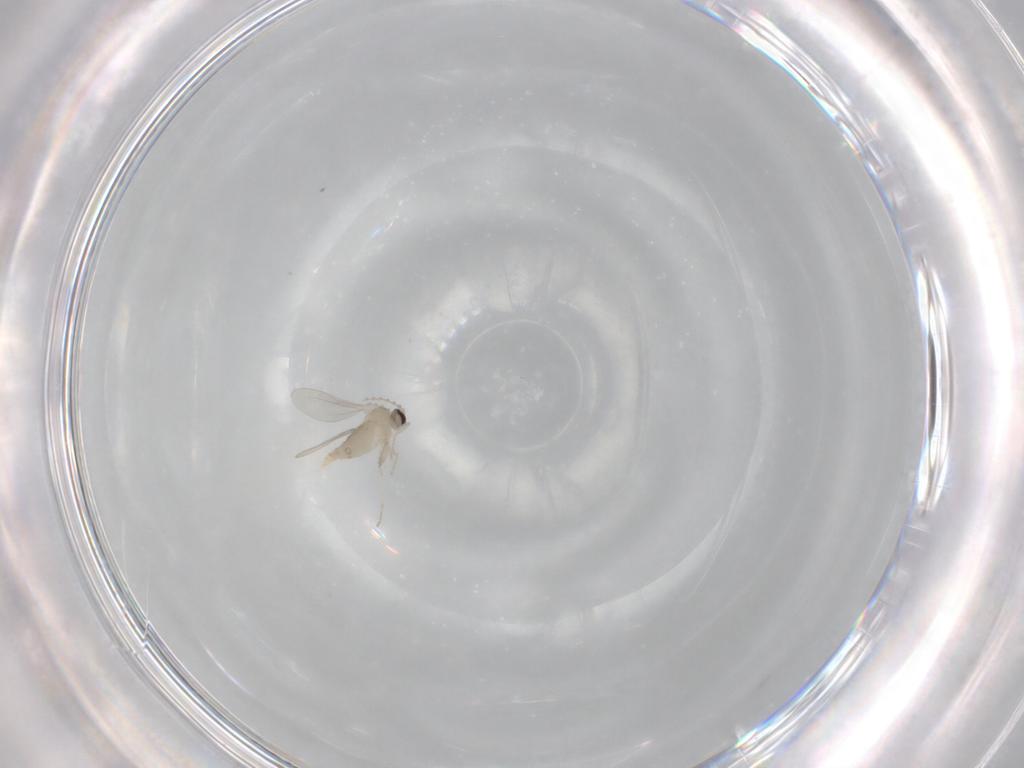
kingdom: Animalia
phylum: Arthropoda
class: Insecta
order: Diptera
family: Cecidomyiidae
